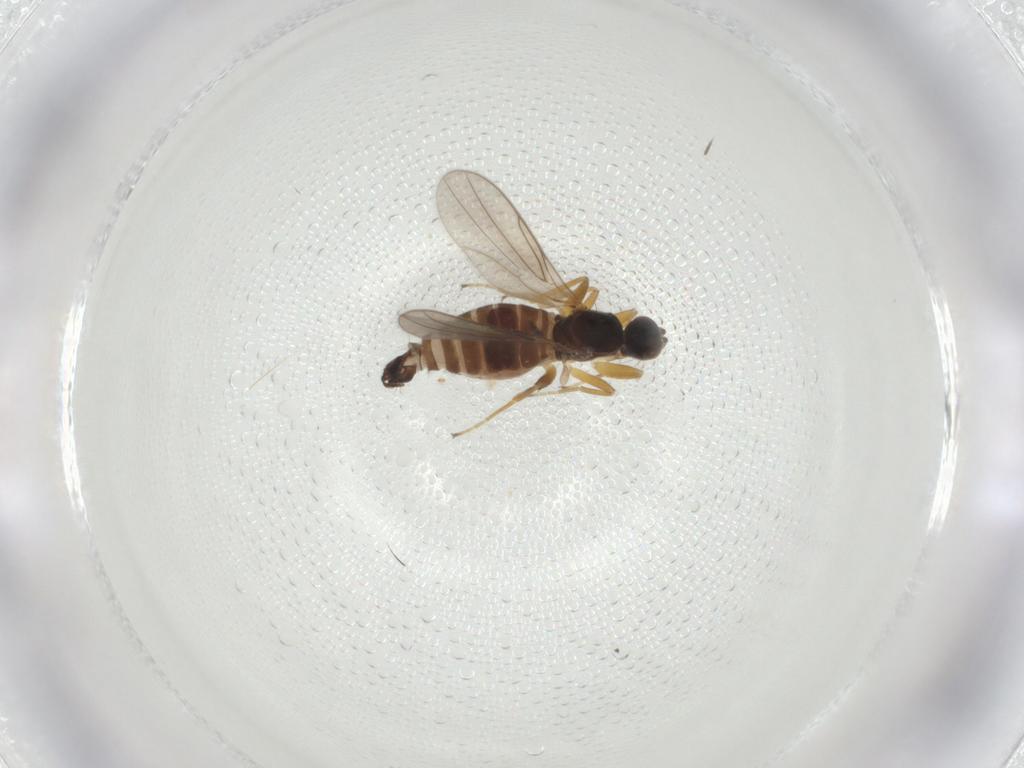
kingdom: Animalia
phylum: Arthropoda
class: Insecta
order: Diptera
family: Hybotidae
